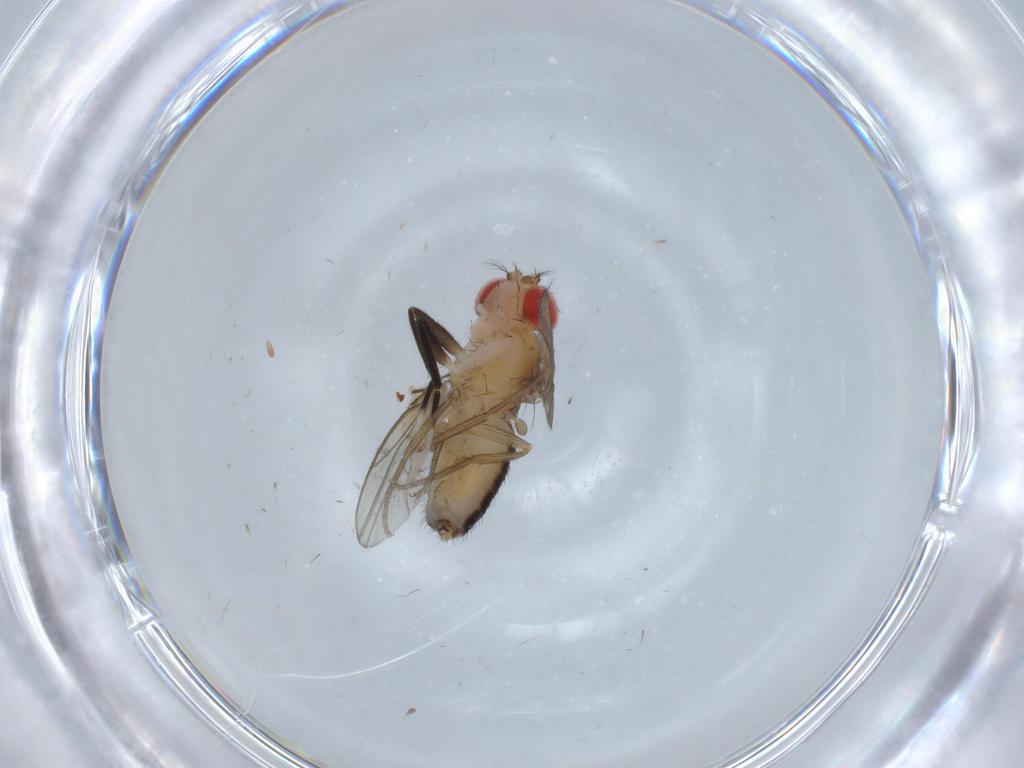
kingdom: Animalia
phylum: Arthropoda
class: Insecta
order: Diptera
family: Drosophilidae
